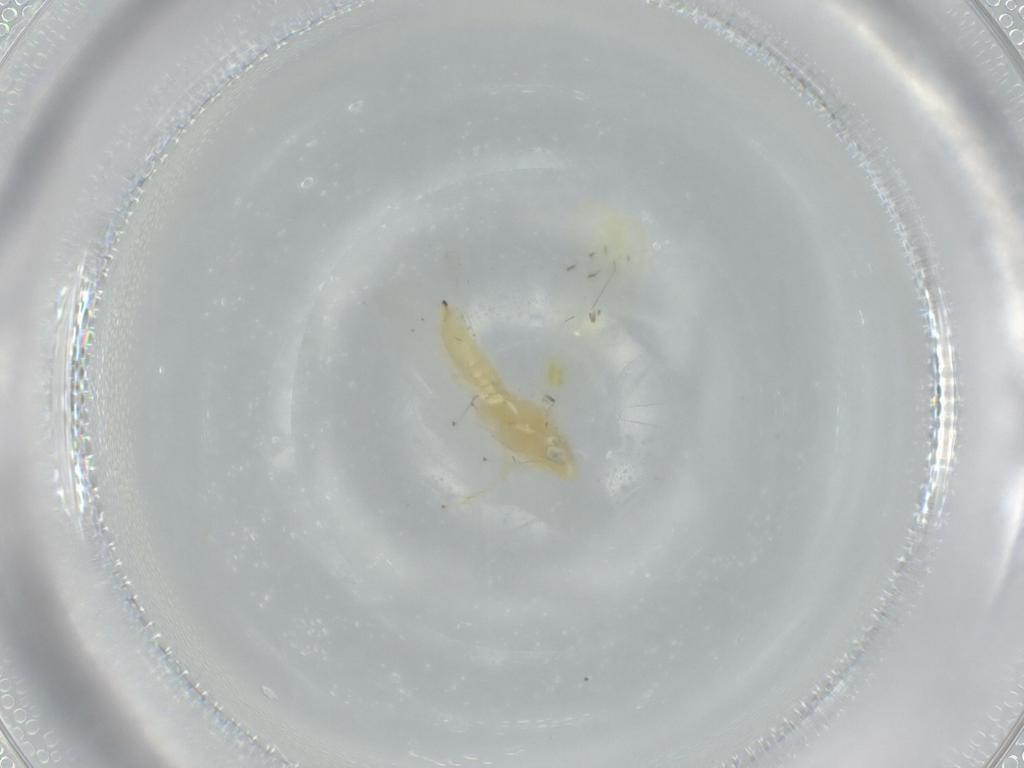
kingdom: Animalia
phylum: Arthropoda
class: Insecta
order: Hemiptera
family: Cicadellidae
